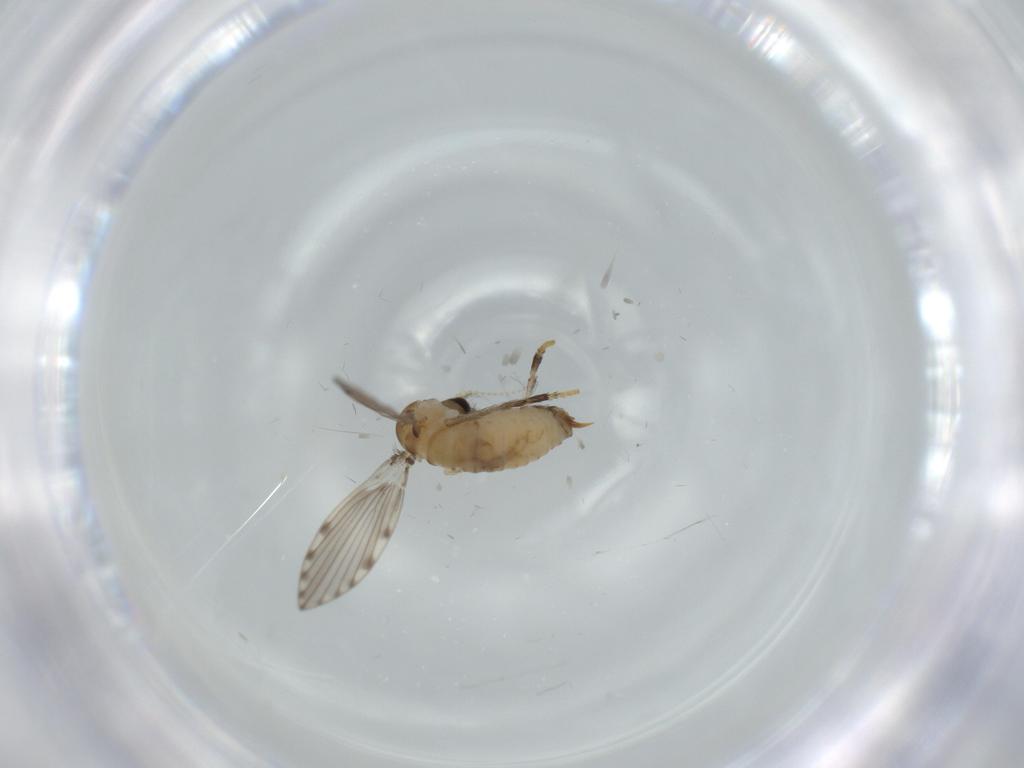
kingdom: Animalia
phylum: Arthropoda
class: Insecta
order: Diptera
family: Psychodidae
